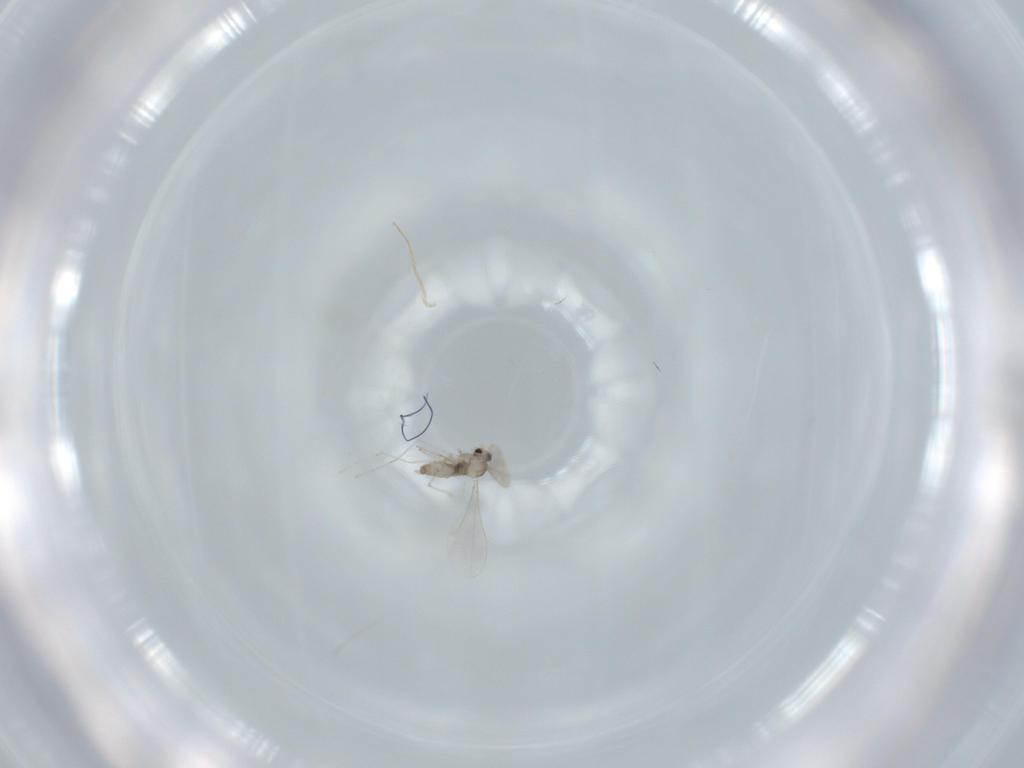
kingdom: Animalia
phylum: Arthropoda
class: Insecta
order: Diptera
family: Cecidomyiidae
